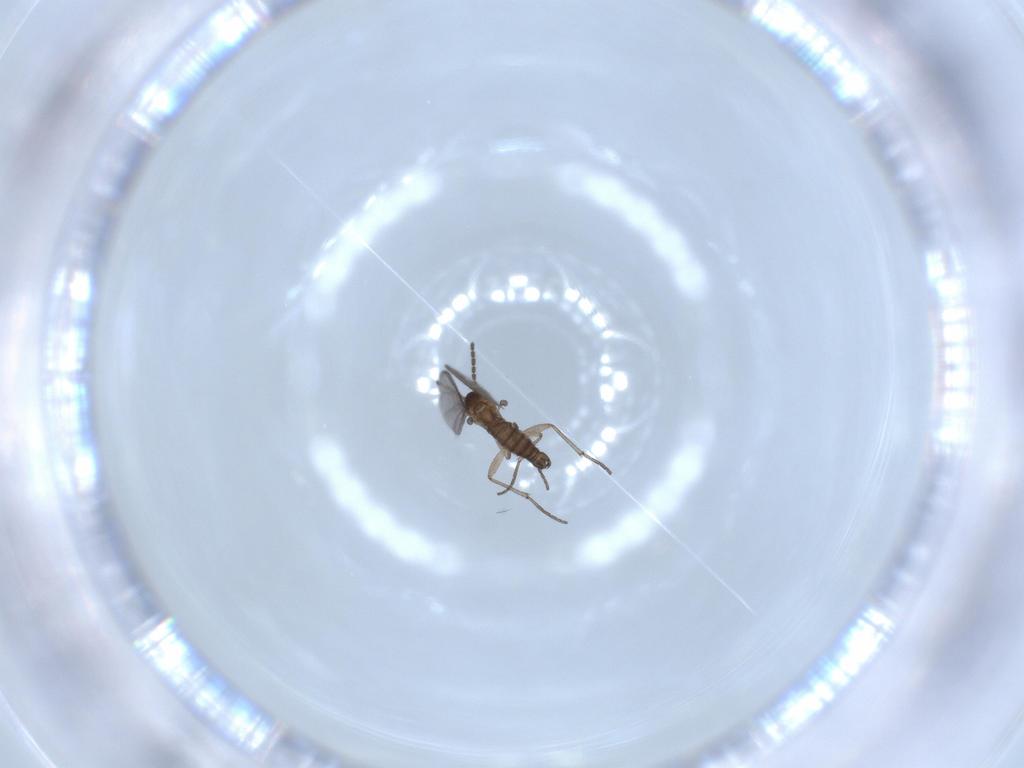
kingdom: Animalia
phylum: Arthropoda
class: Insecta
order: Diptera
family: Sciaridae
